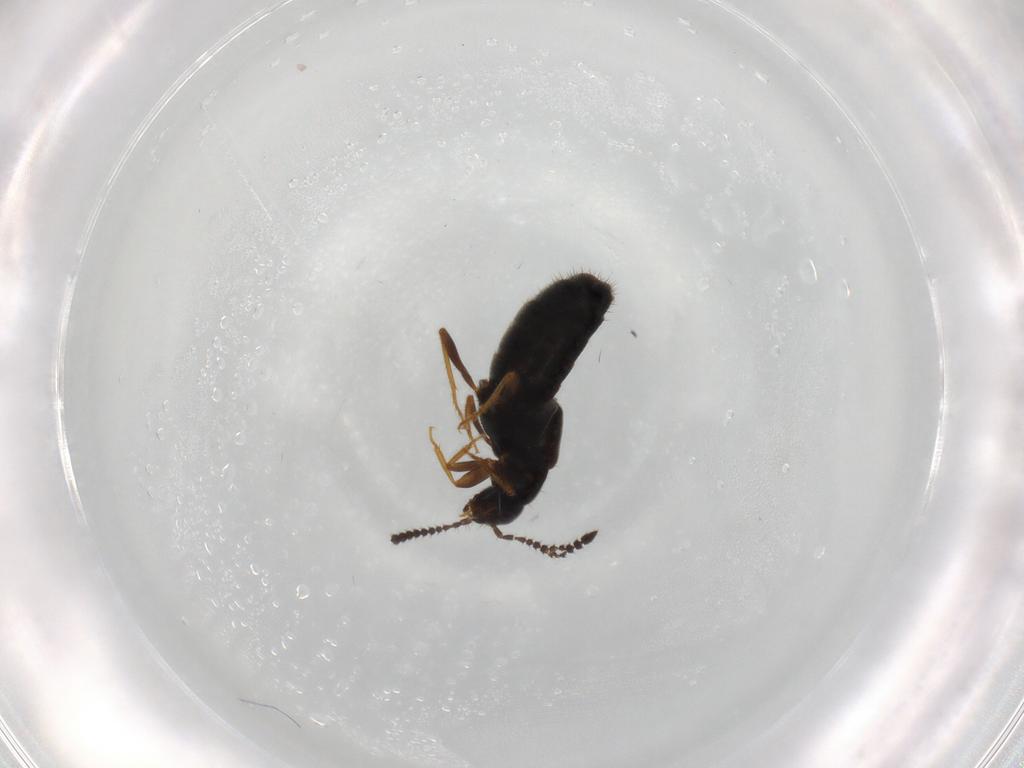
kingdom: Animalia
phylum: Arthropoda
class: Insecta
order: Coleoptera
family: Staphylinidae
